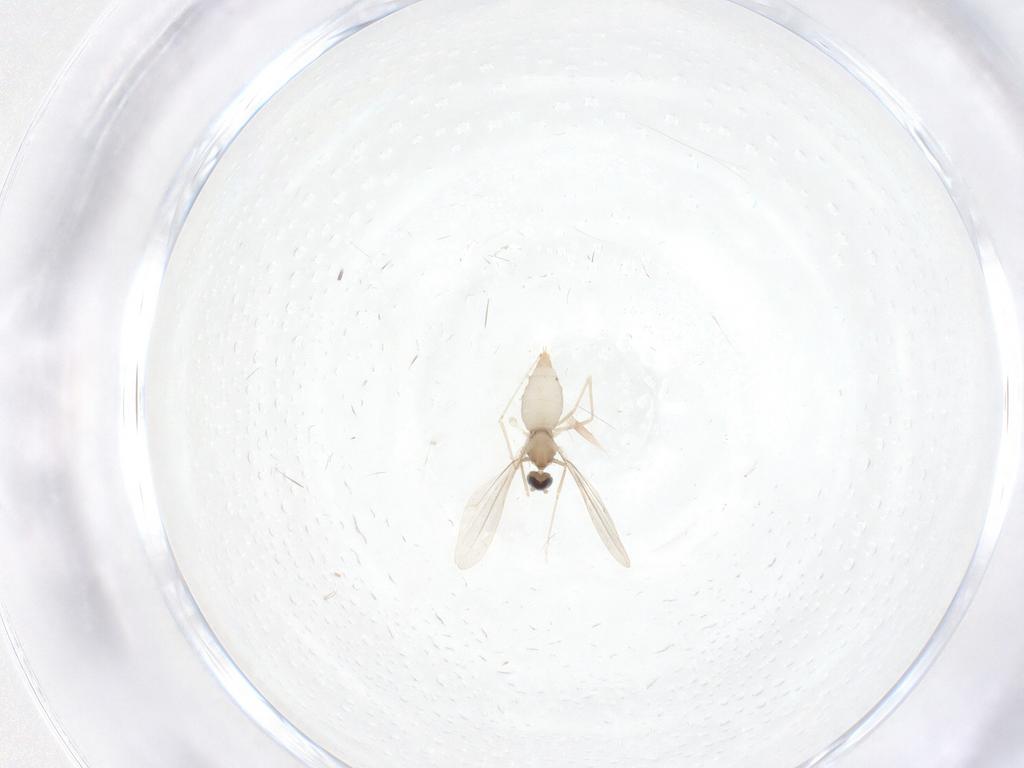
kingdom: Animalia
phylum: Arthropoda
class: Insecta
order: Diptera
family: Cecidomyiidae
